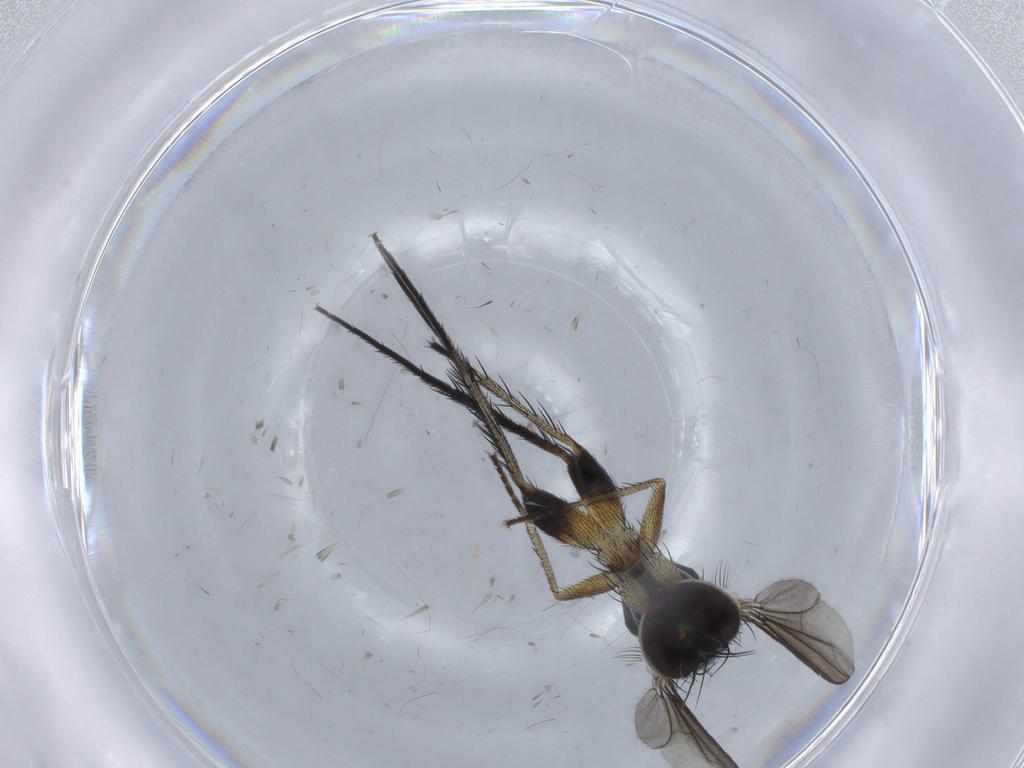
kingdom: Animalia
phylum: Arthropoda
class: Insecta
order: Diptera
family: Dolichopodidae
